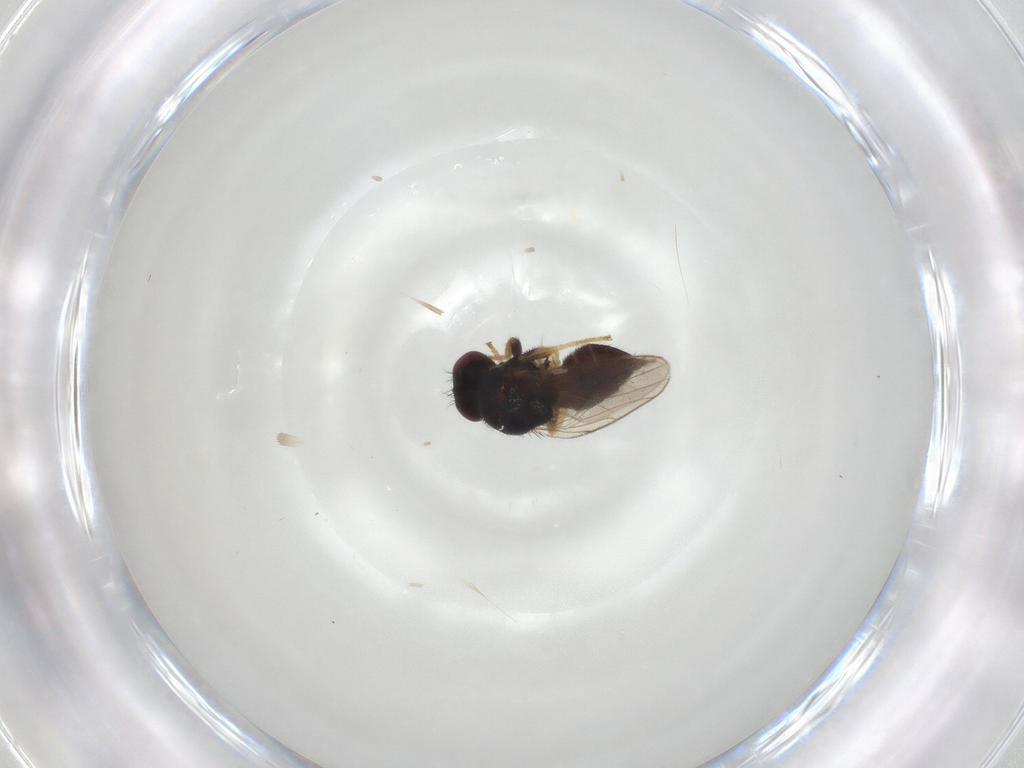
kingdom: Animalia
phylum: Arthropoda
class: Insecta
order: Diptera
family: Chloropidae
